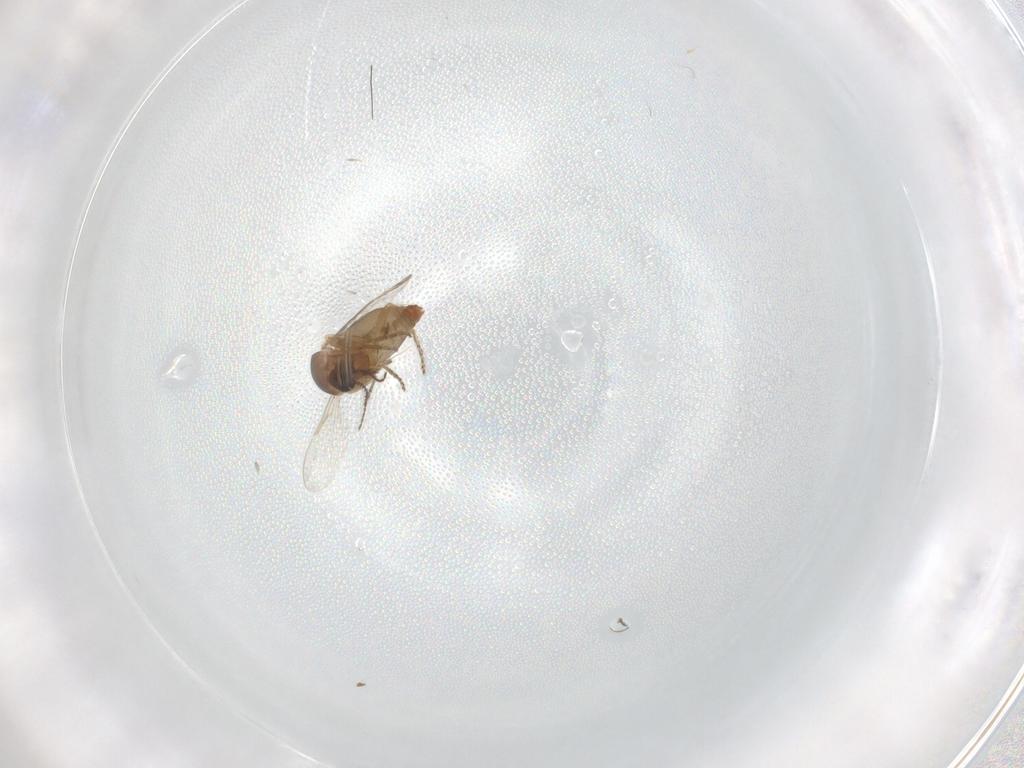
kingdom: Animalia
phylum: Arthropoda
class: Insecta
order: Diptera
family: Ceratopogonidae
